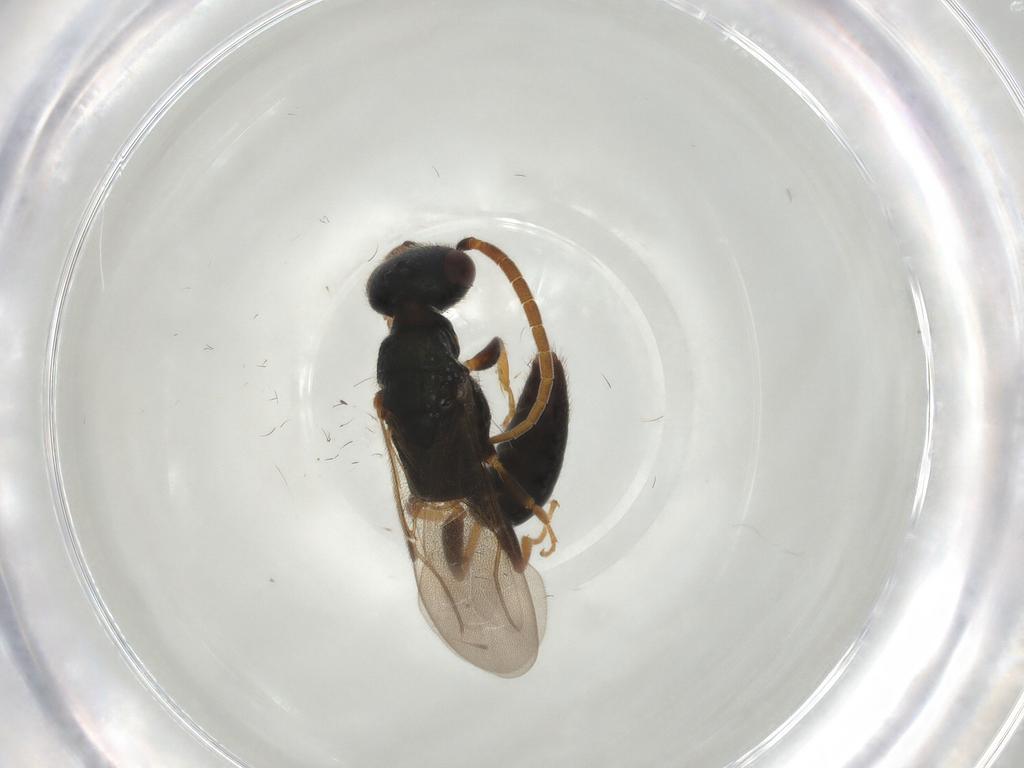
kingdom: Animalia
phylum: Arthropoda
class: Insecta
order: Hymenoptera
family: Bethylidae
